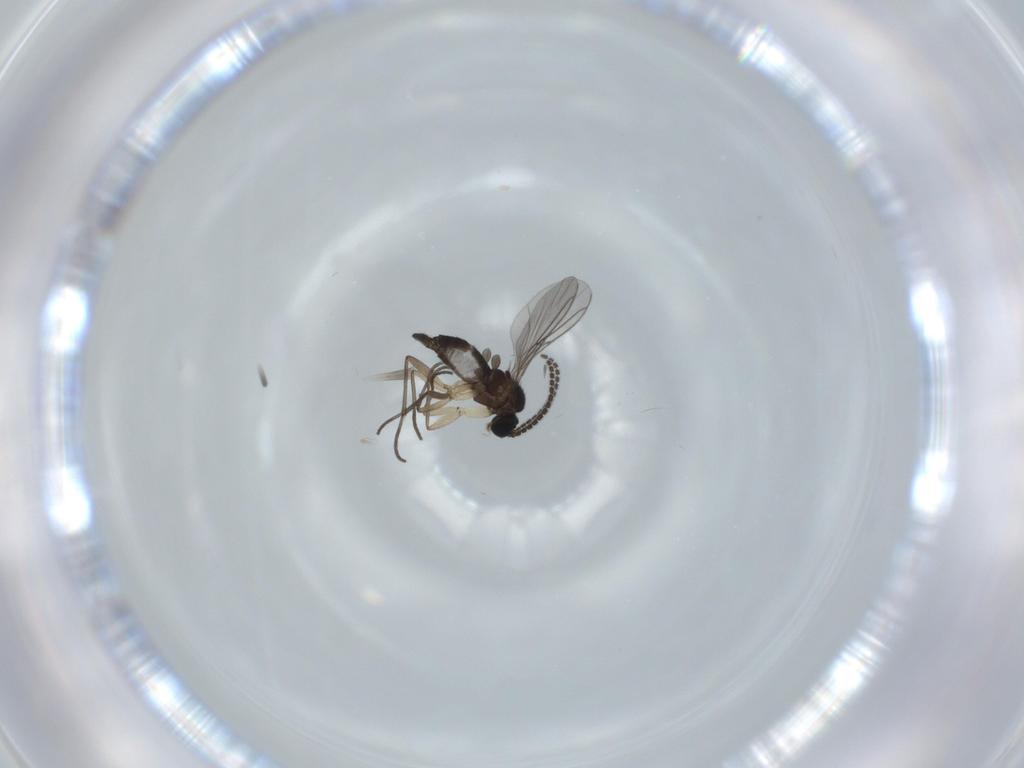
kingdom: Animalia
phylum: Arthropoda
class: Insecta
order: Diptera
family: Sciaridae
